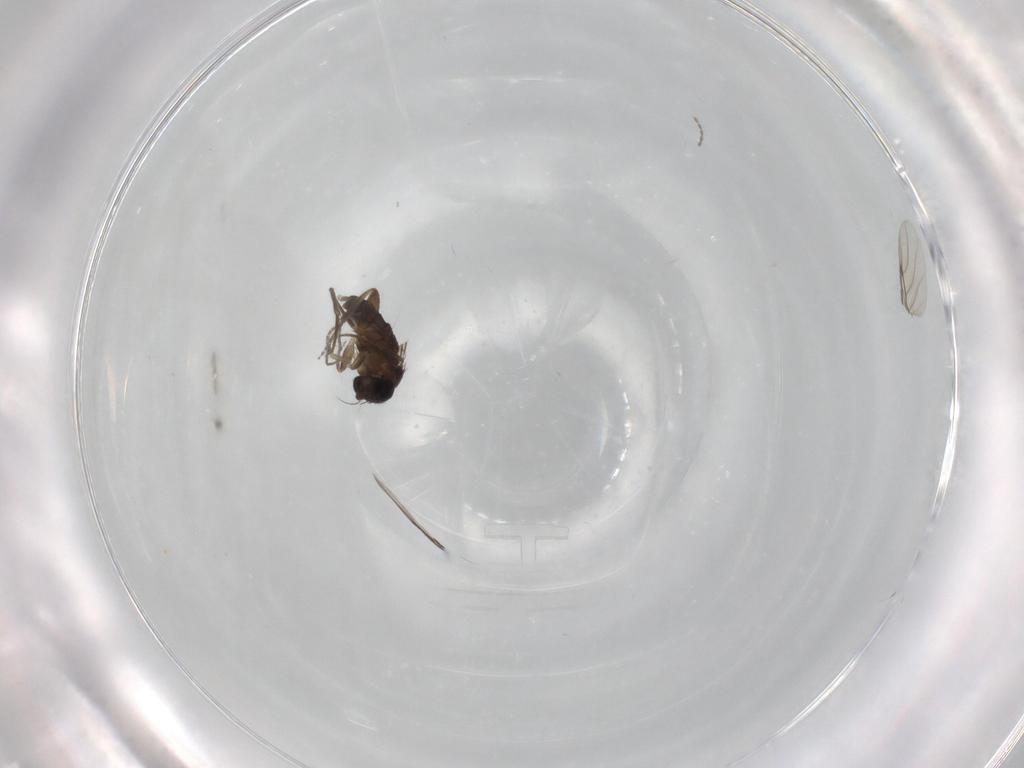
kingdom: Animalia
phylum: Arthropoda
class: Insecta
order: Diptera
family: Phoridae
